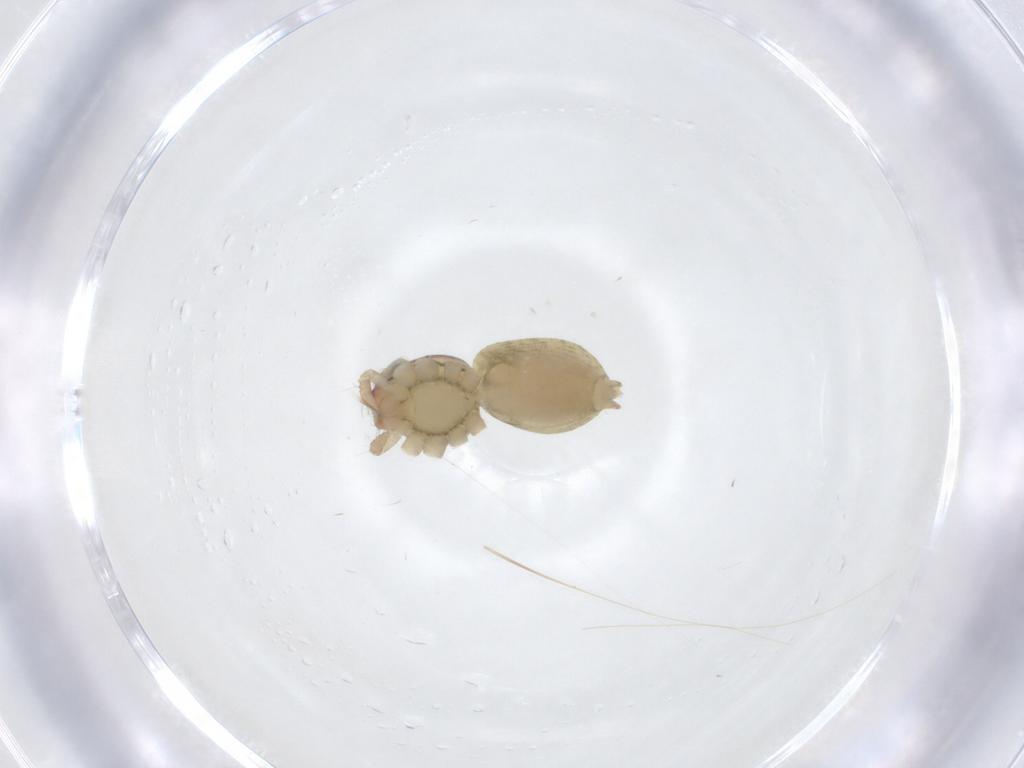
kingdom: Animalia
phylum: Arthropoda
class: Arachnida
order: Araneae
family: Thomisidae
